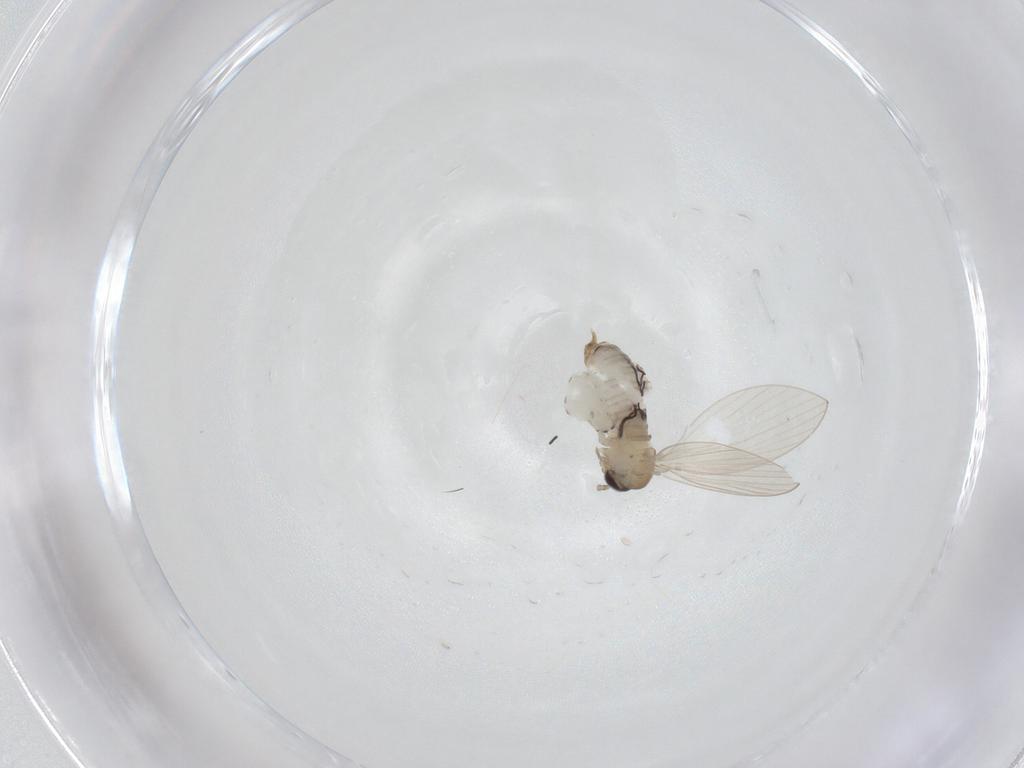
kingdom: Animalia
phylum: Arthropoda
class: Insecta
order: Diptera
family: Psychodidae
